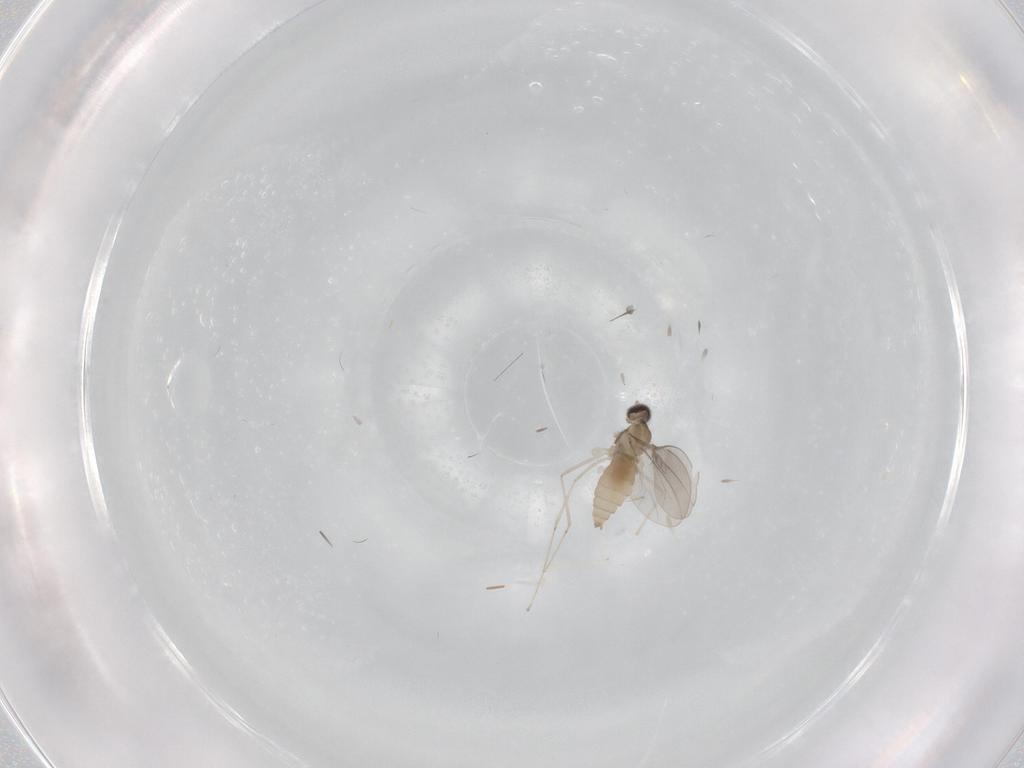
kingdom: Animalia
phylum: Arthropoda
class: Insecta
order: Diptera
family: Cecidomyiidae
